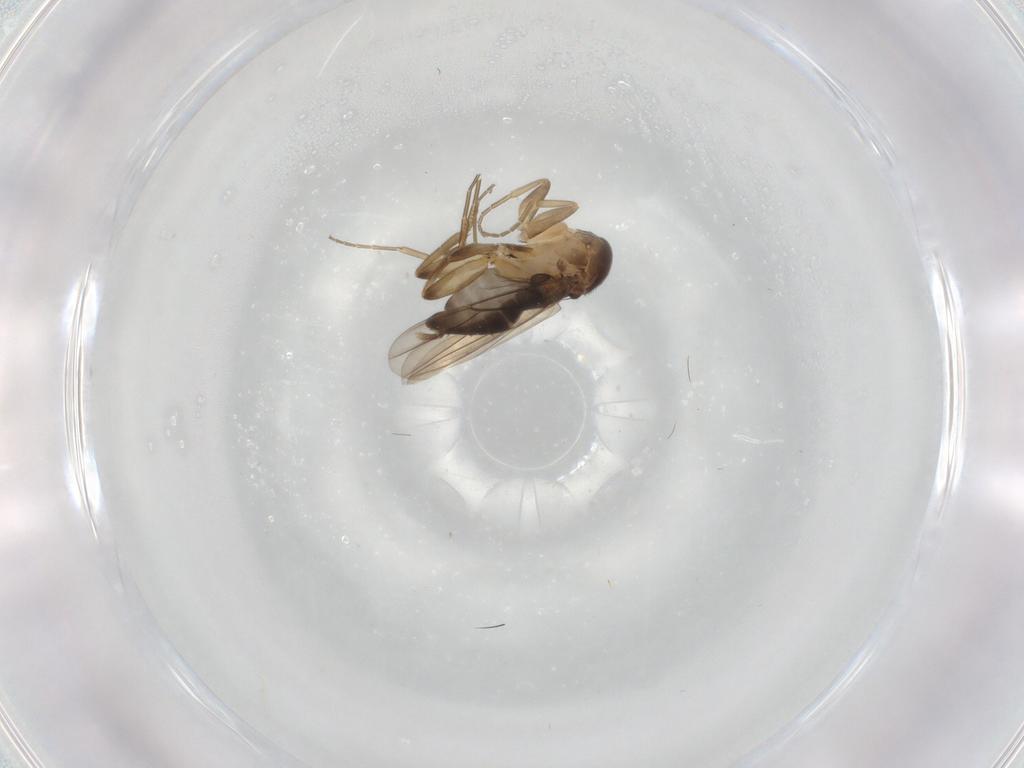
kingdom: Animalia
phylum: Arthropoda
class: Insecta
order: Diptera
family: Phoridae
